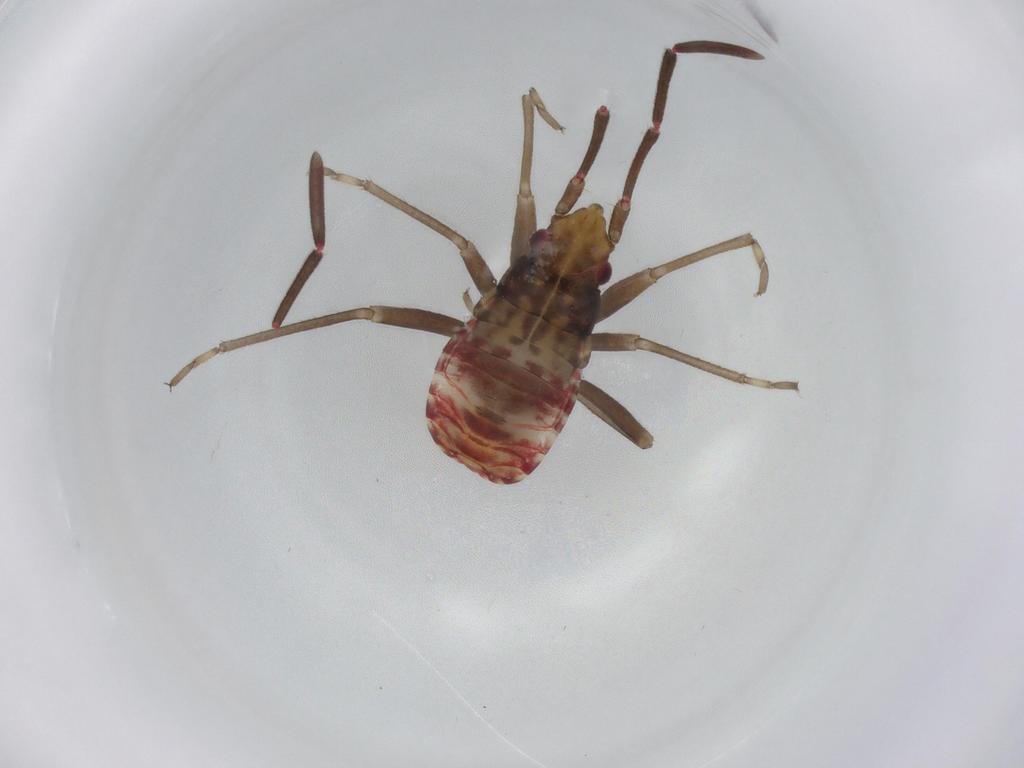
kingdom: Animalia
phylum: Arthropoda
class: Insecta
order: Hemiptera
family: Rhyparochromidae
